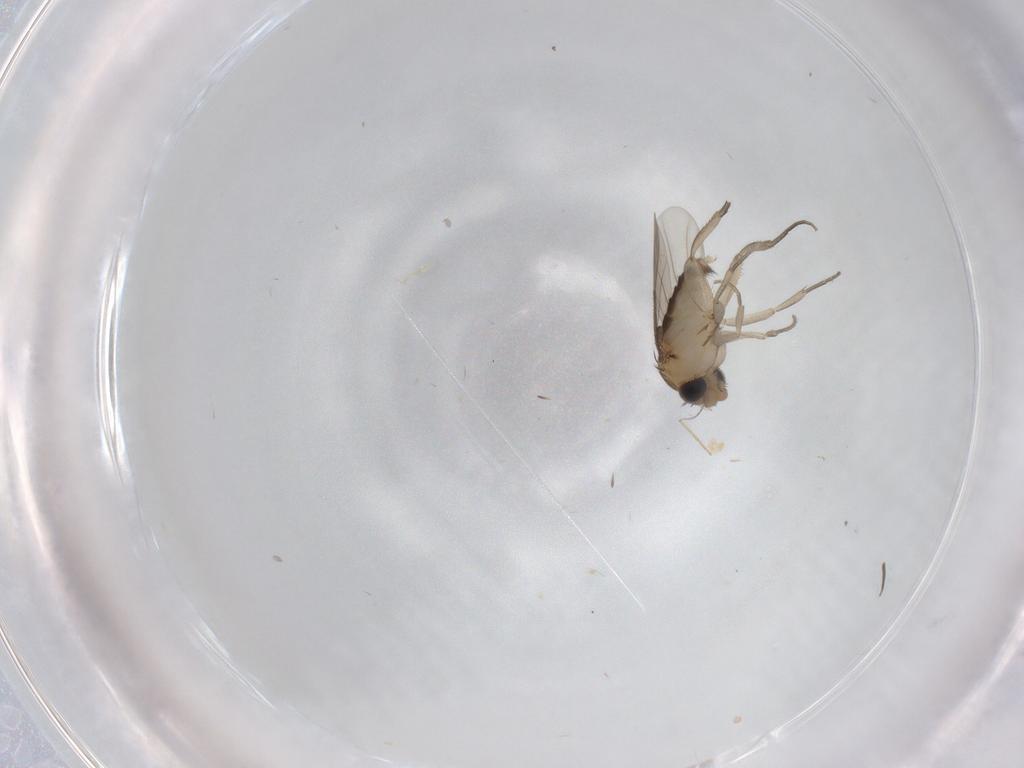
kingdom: Animalia
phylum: Arthropoda
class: Insecta
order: Diptera
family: Phoridae
